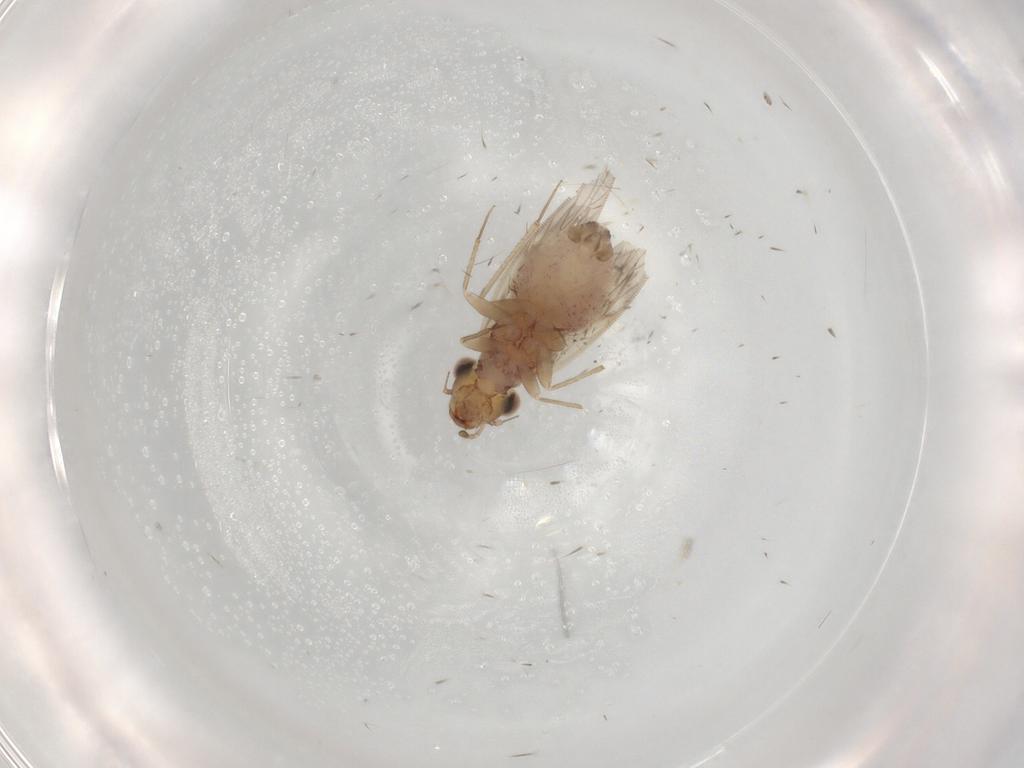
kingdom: Animalia
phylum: Arthropoda
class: Insecta
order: Psocodea
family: Lepidopsocidae
